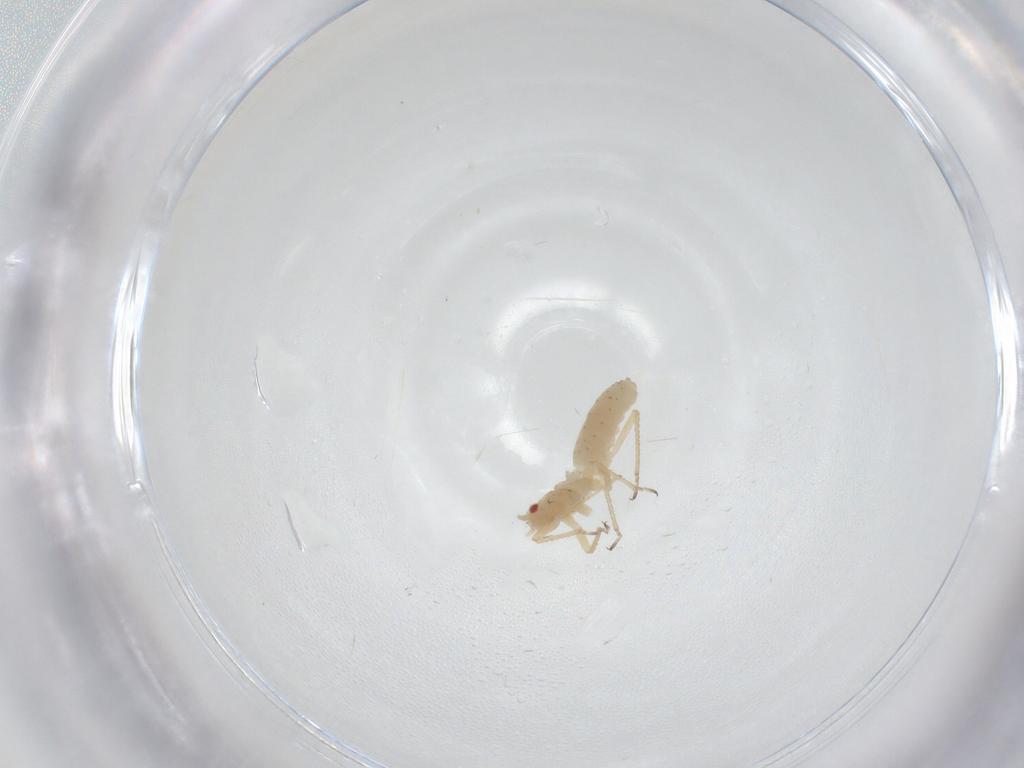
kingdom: Animalia
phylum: Arthropoda
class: Insecta
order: Hemiptera
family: Aphididae
